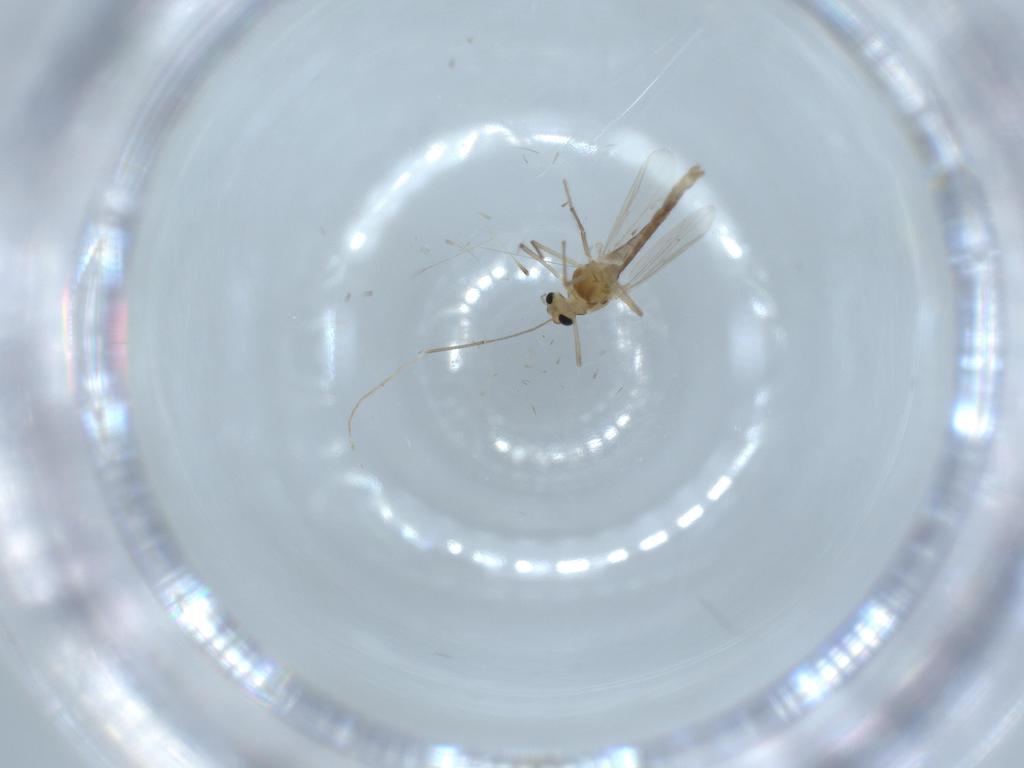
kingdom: Animalia
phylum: Arthropoda
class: Insecta
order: Diptera
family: Chironomidae
